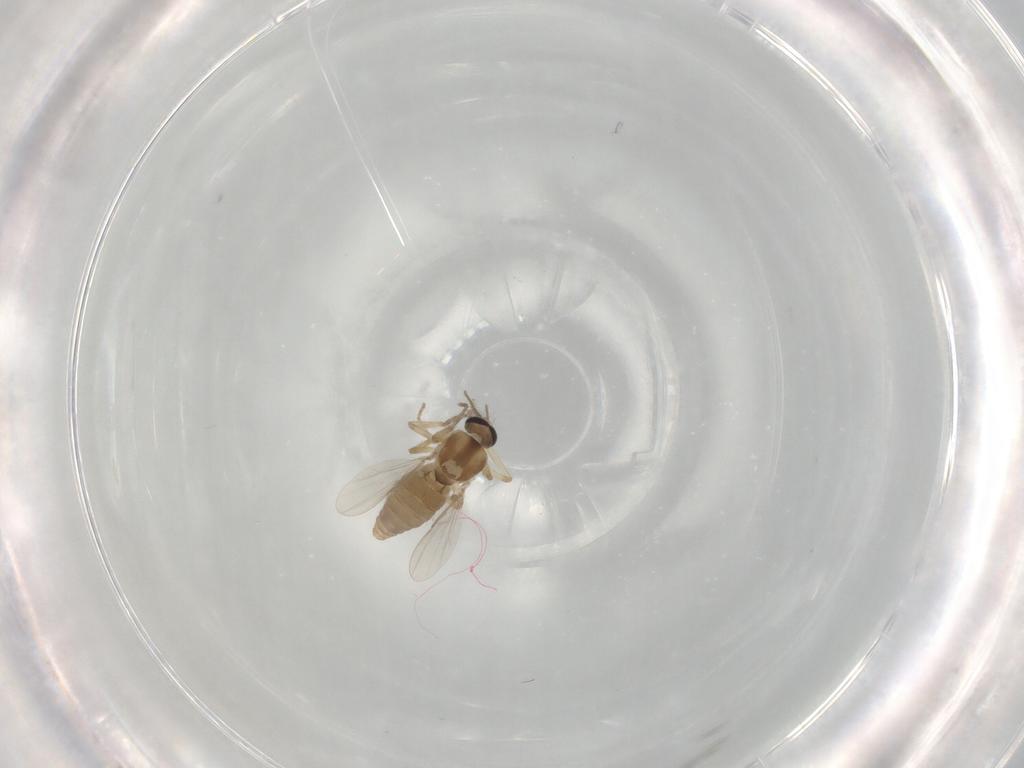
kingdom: Animalia
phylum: Arthropoda
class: Insecta
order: Diptera
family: Ceratopogonidae
